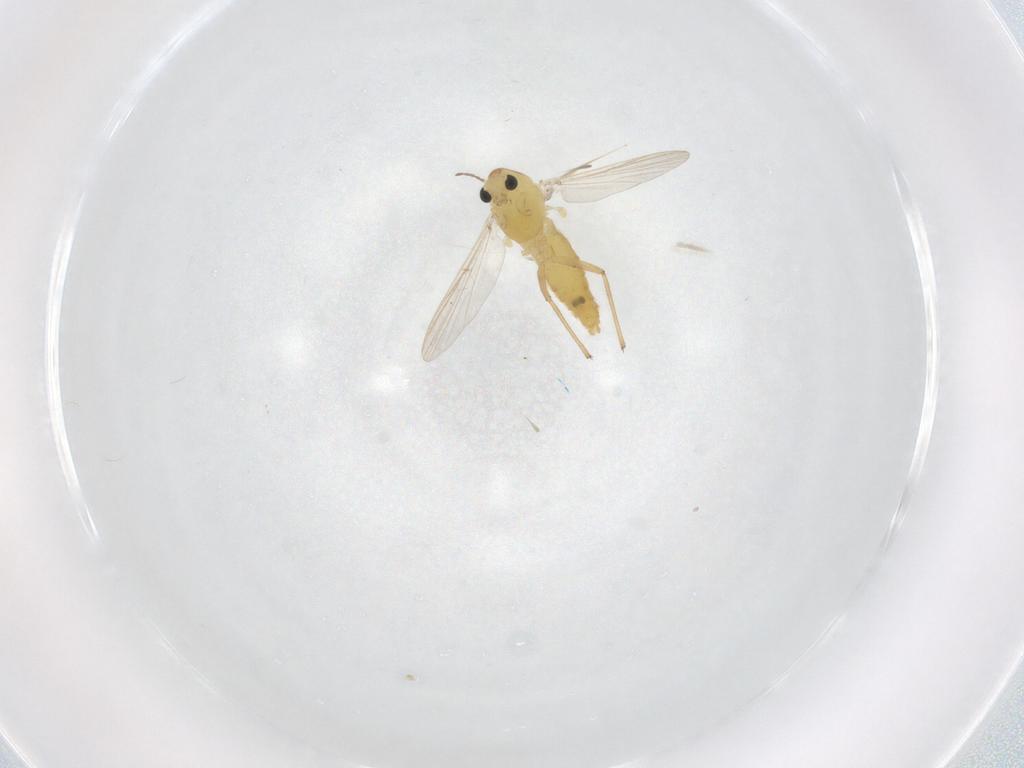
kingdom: Animalia
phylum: Arthropoda
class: Insecta
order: Diptera
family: Chironomidae
